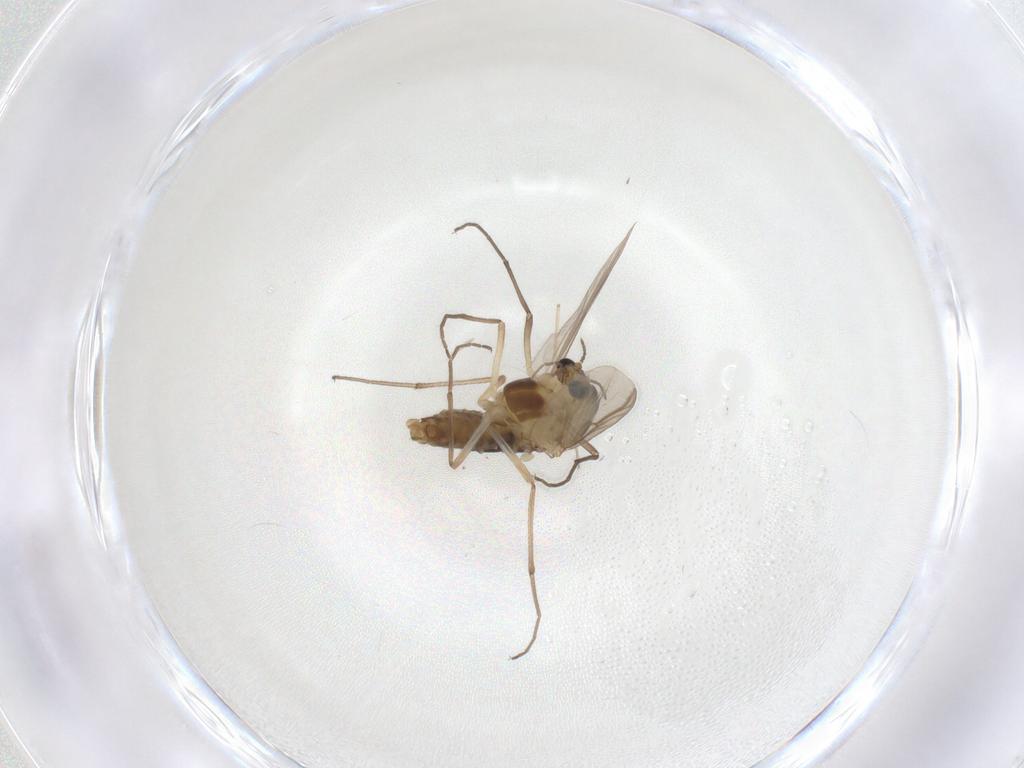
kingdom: Animalia
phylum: Arthropoda
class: Insecta
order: Diptera
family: Chironomidae
